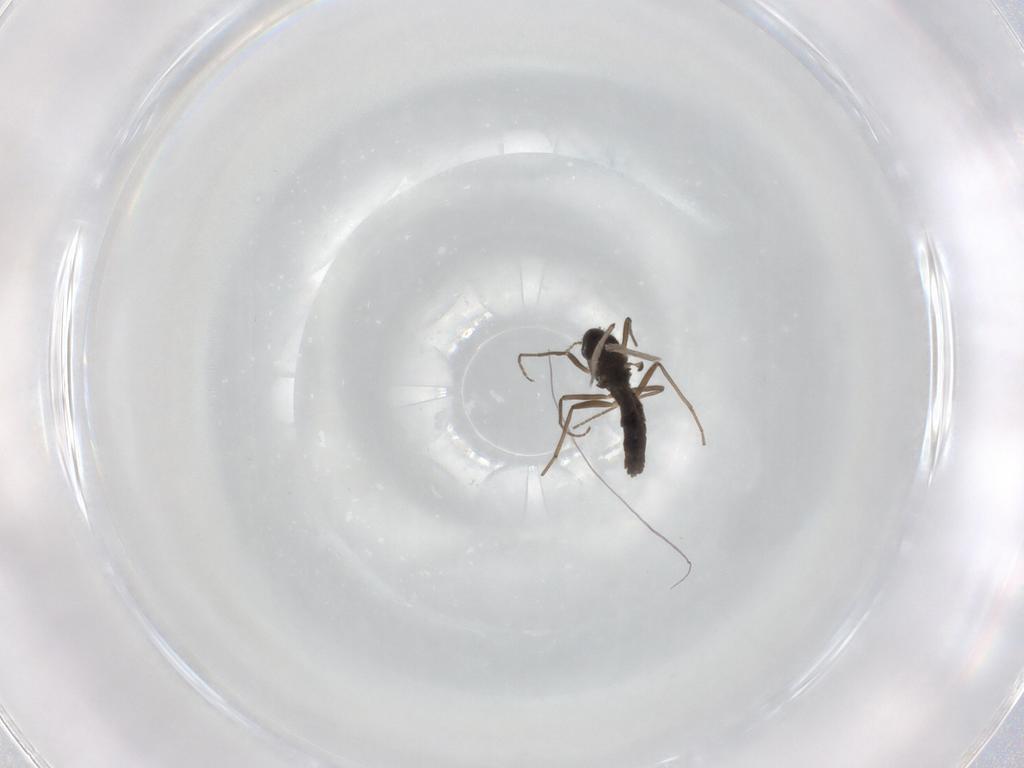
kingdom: Animalia
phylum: Arthropoda
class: Insecta
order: Diptera
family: Chironomidae
